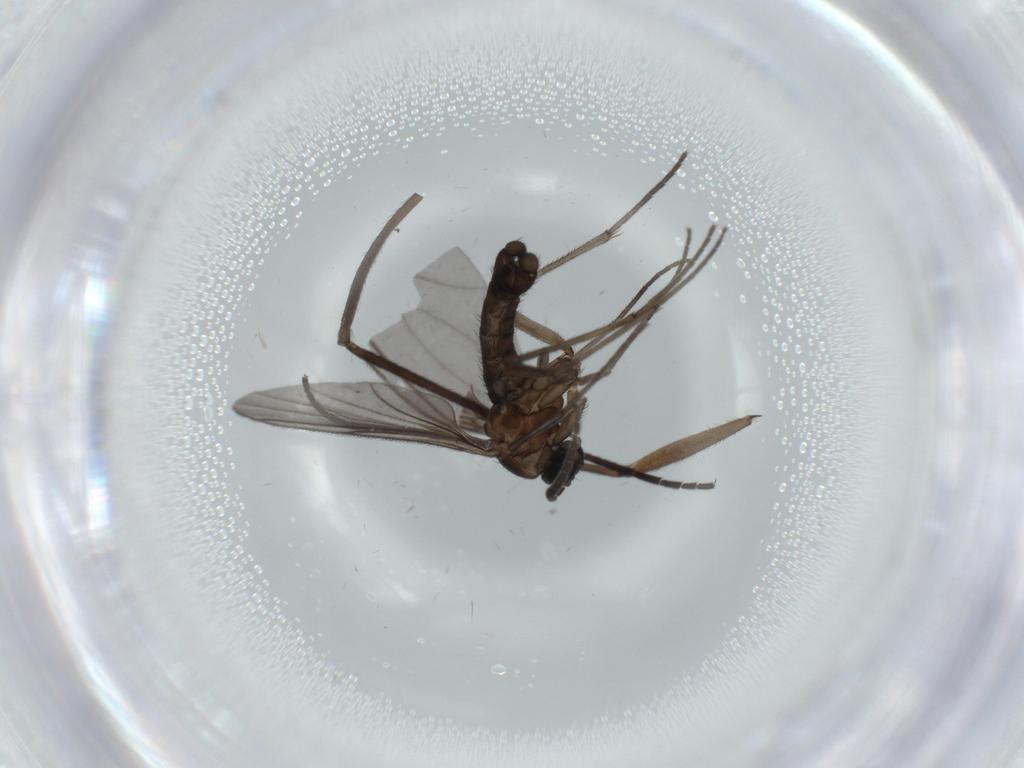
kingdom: Animalia
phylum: Arthropoda
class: Insecta
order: Diptera
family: Sciaridae
